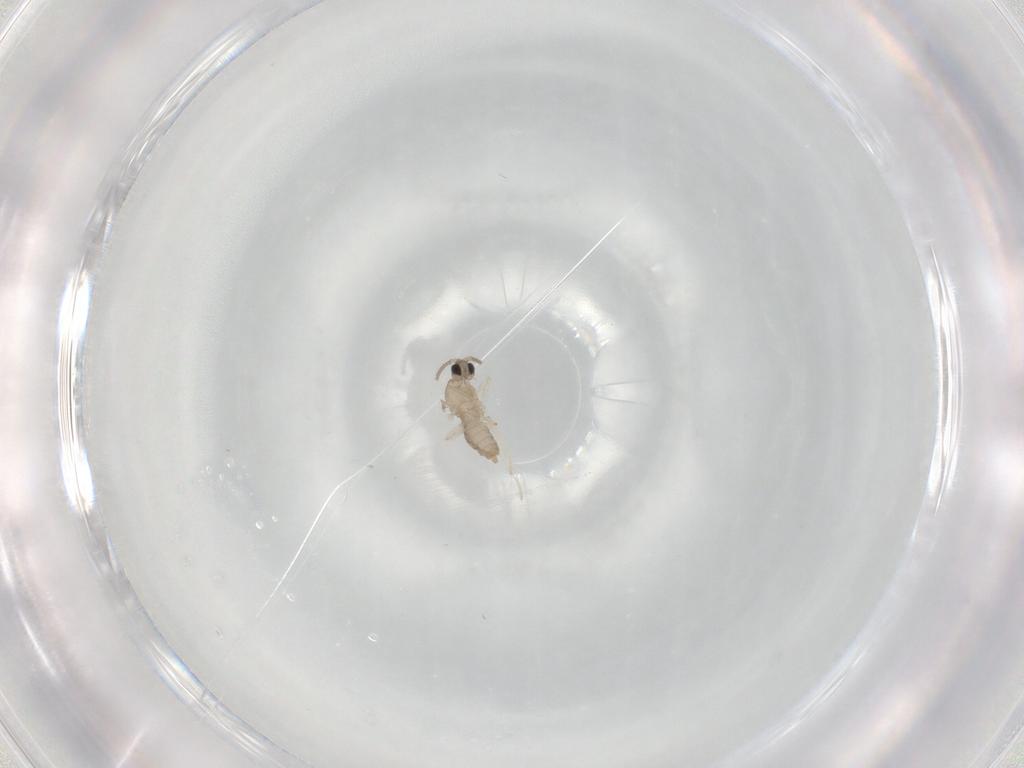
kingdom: Animalia
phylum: Arthropoda
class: Insecta
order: Diptera
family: Cecidomyiidae
